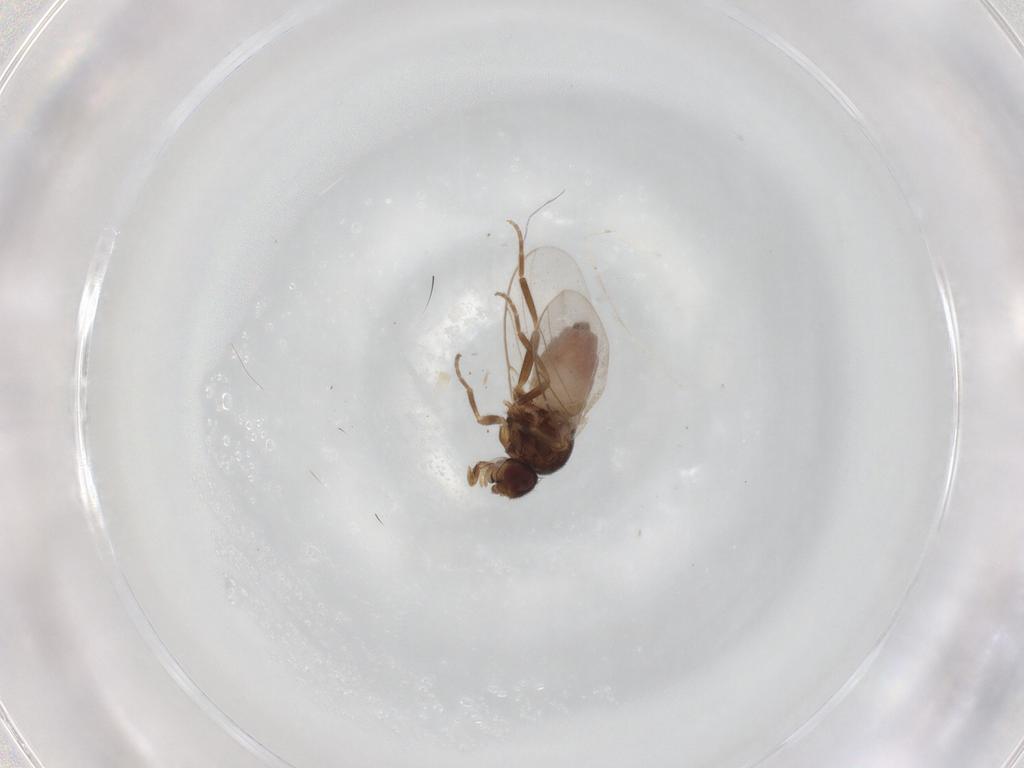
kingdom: Animalia
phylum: Arthropoda
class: Insecta
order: Diptera
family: Chloropidae
